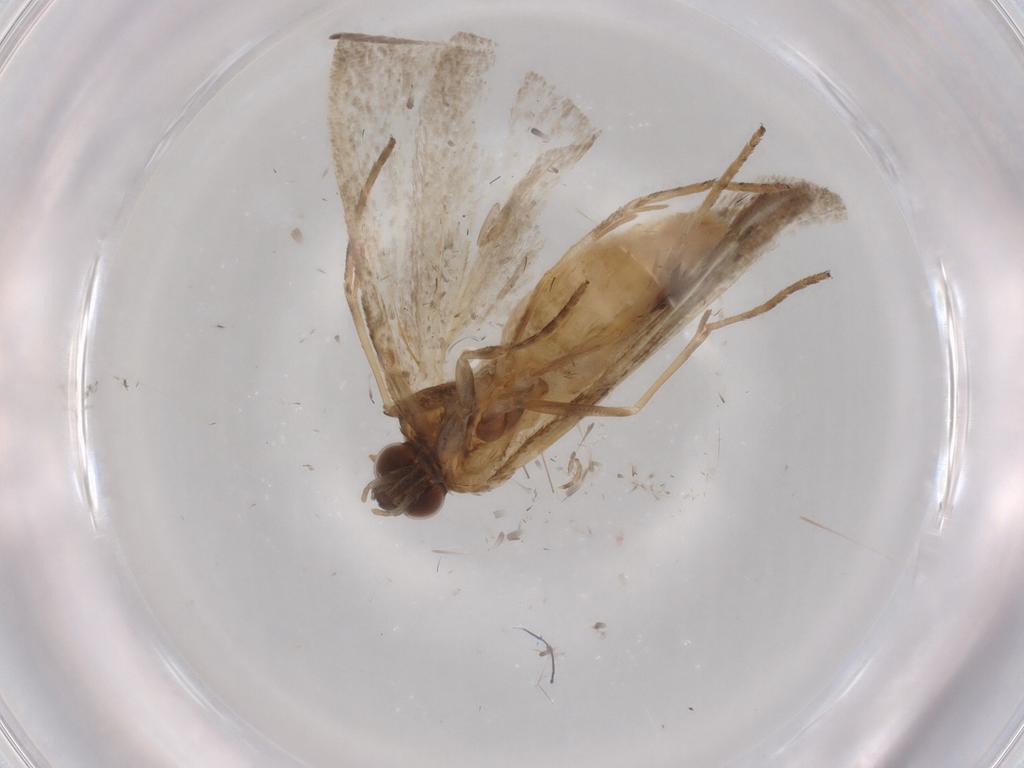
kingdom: Animalia
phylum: Arthropoda
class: Insecta
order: Lepidoptera
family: Noctuidae
